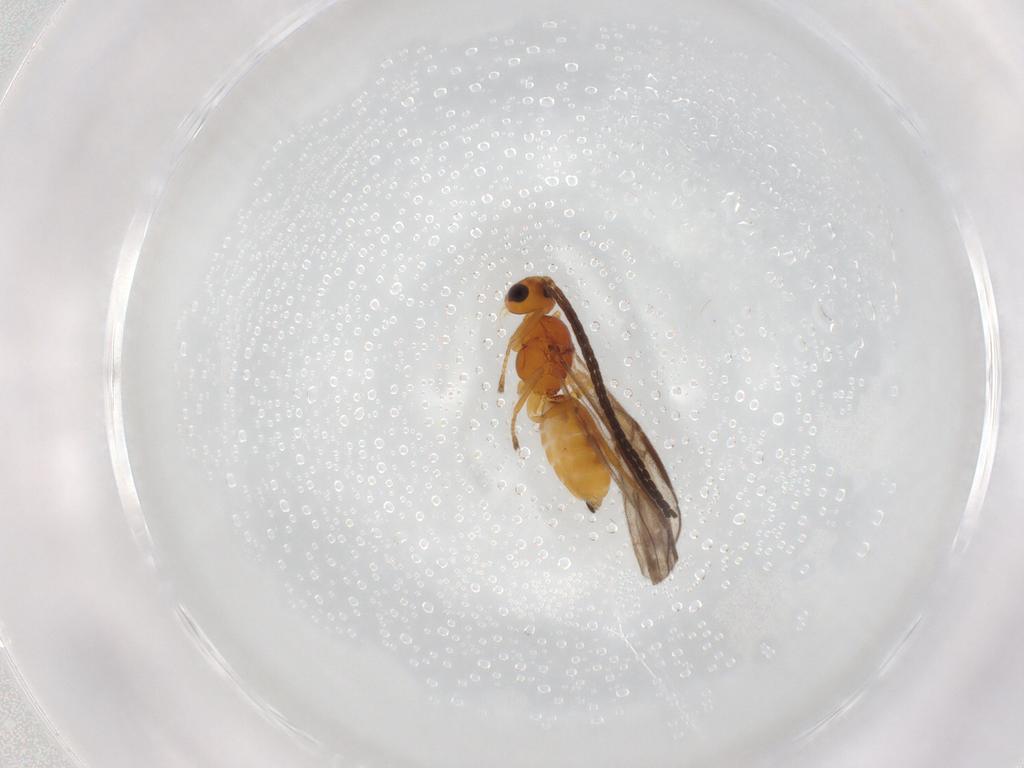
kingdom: Animalia
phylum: Arthropoda
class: Insecta
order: Hymenoptera
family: Braconidae
